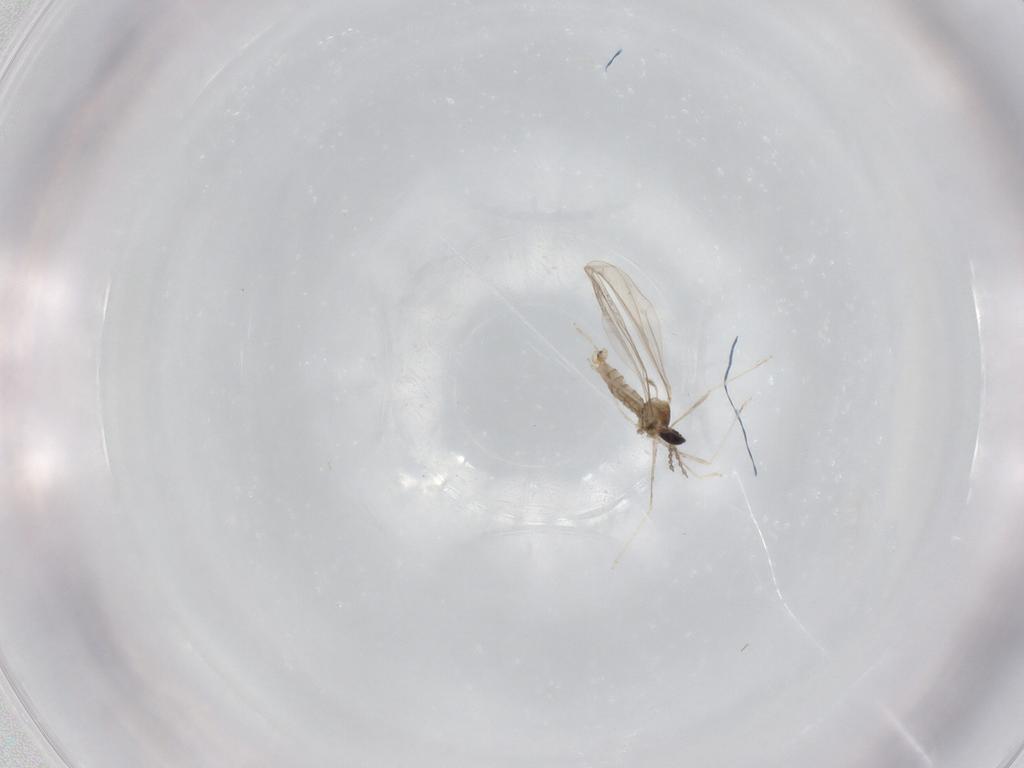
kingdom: Animalia
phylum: Arthropoda
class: Insecta
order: Diptera
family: Cecidomyiidae
